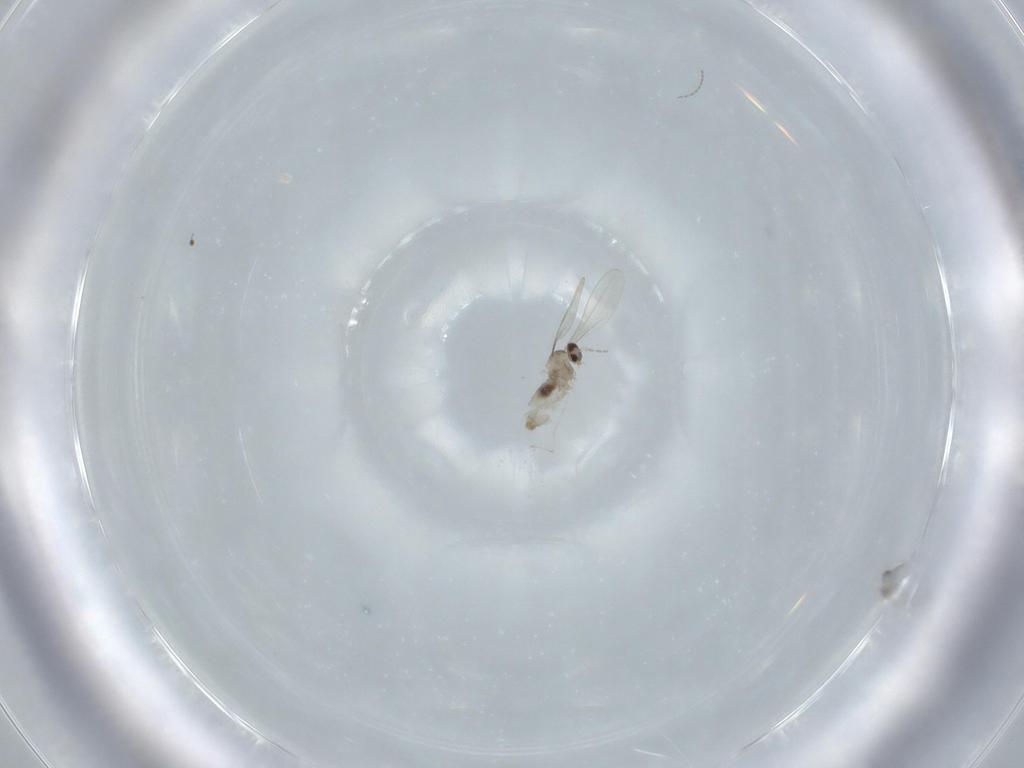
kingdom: Animalia
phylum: Arthropoda
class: Insecta
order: Diptera
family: Cecidomyiidae
